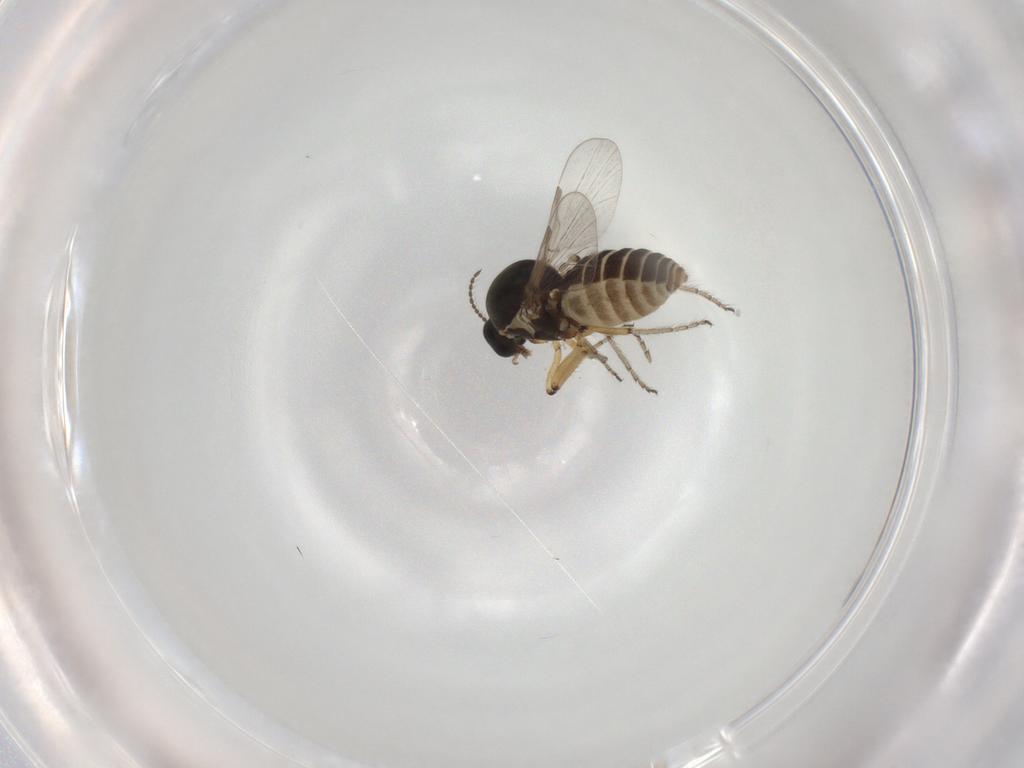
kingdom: Animalia
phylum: Arthropoda
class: Insecta
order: Diptera
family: Ceratopogonidae
